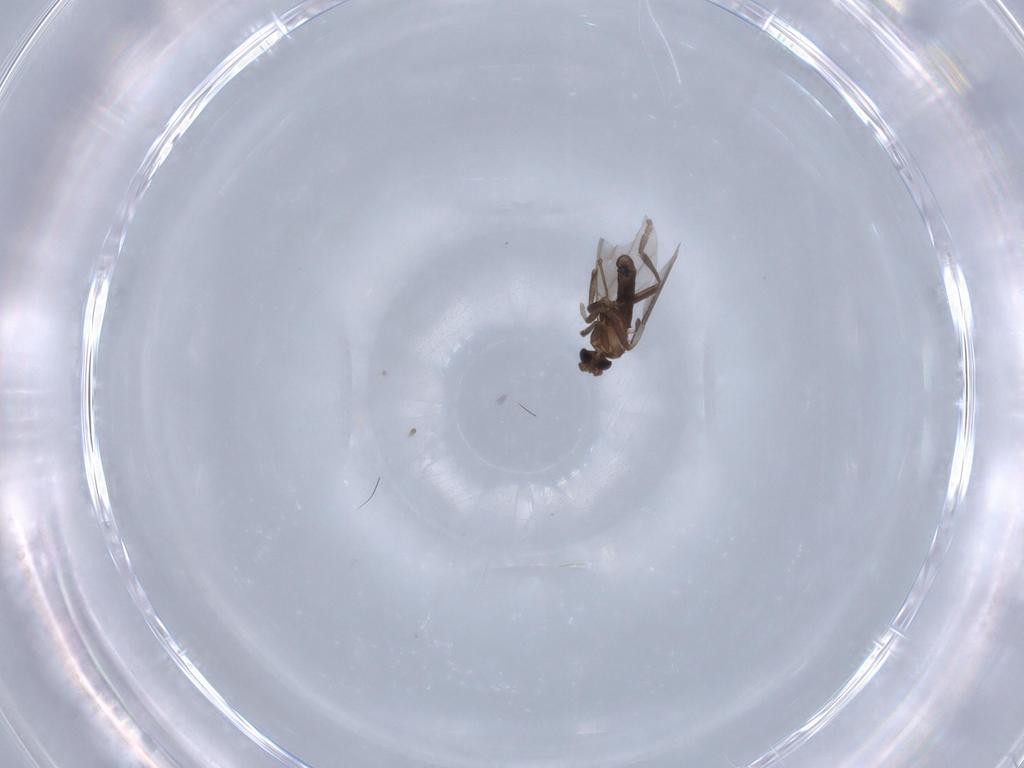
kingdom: Animalia
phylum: Arthropoda
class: Insecta
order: Diptera
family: Phoridae
